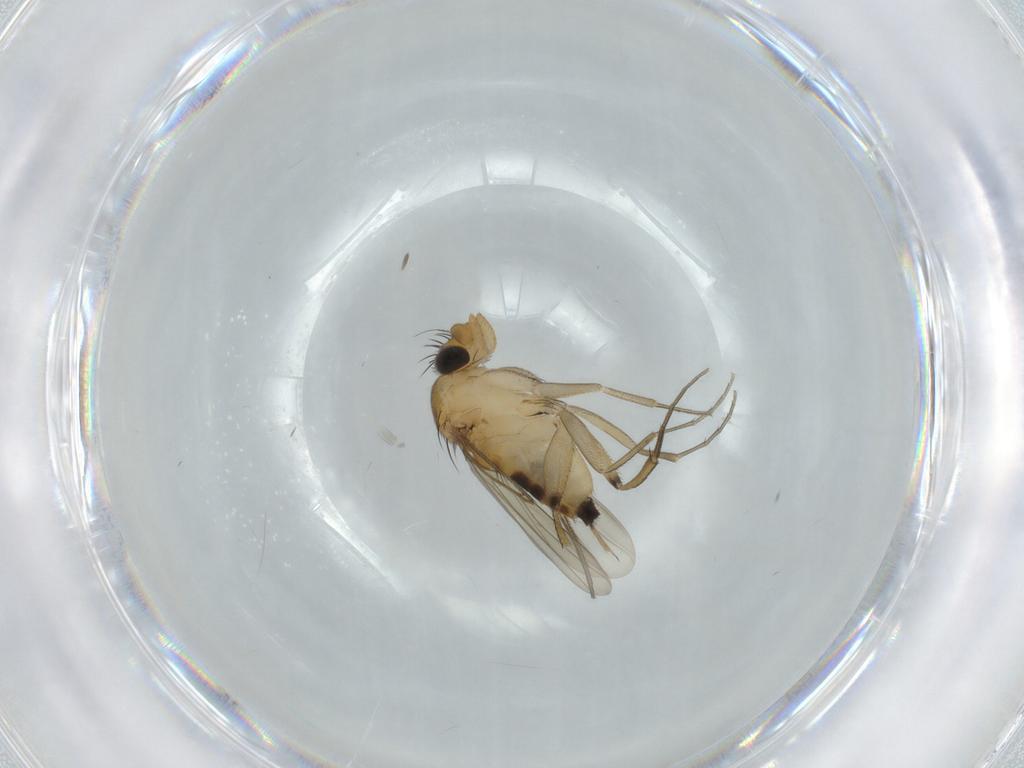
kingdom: Animalia
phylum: Arthropoda
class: Insecta
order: Diptera
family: Phoridae
